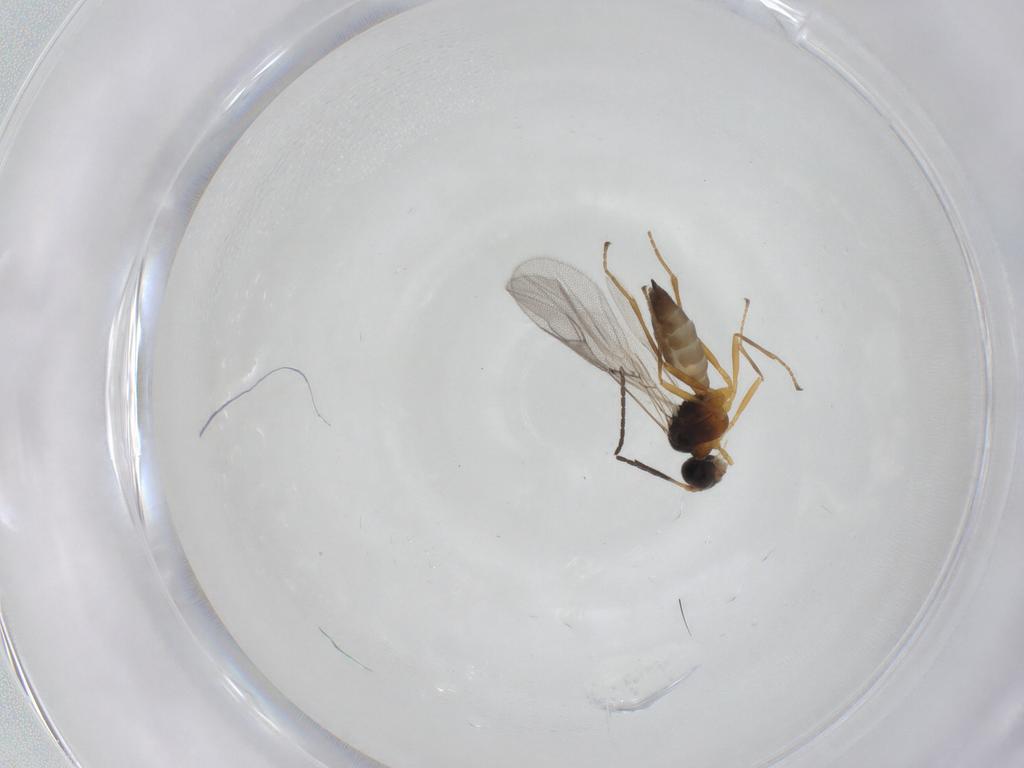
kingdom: Animalia
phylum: Arthropoda
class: Insecta
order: Hymenoptera
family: Braconidae
